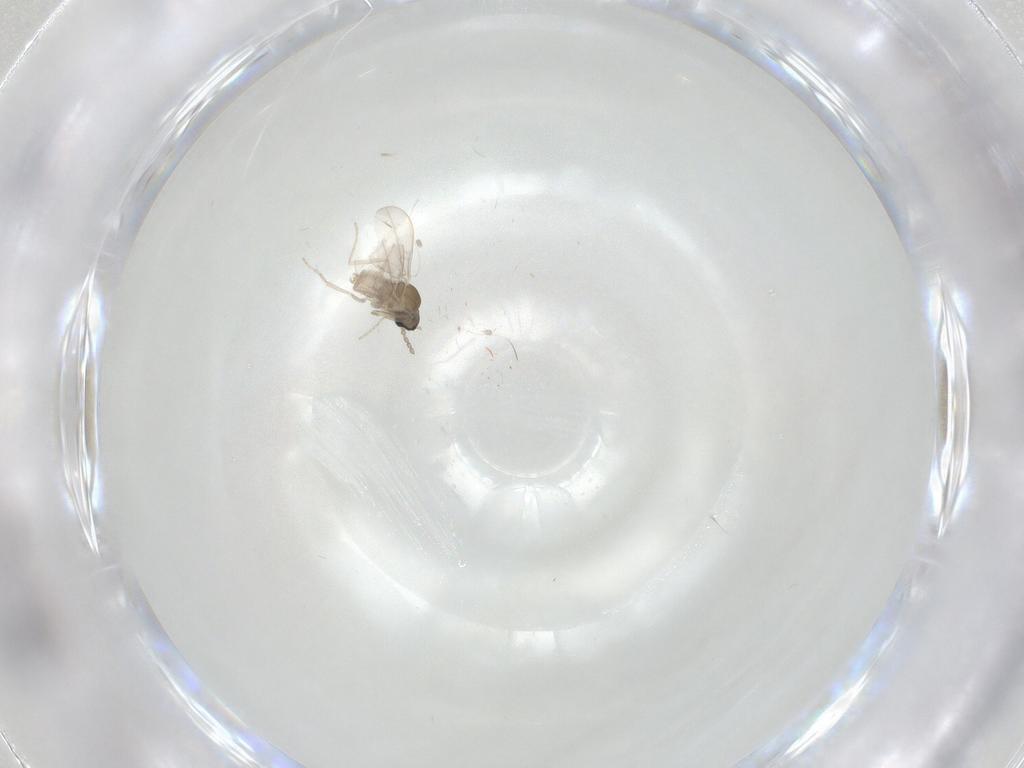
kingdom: Animalia
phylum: Arthropoda
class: Insecta
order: Diptera
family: Cecidomyiidae
